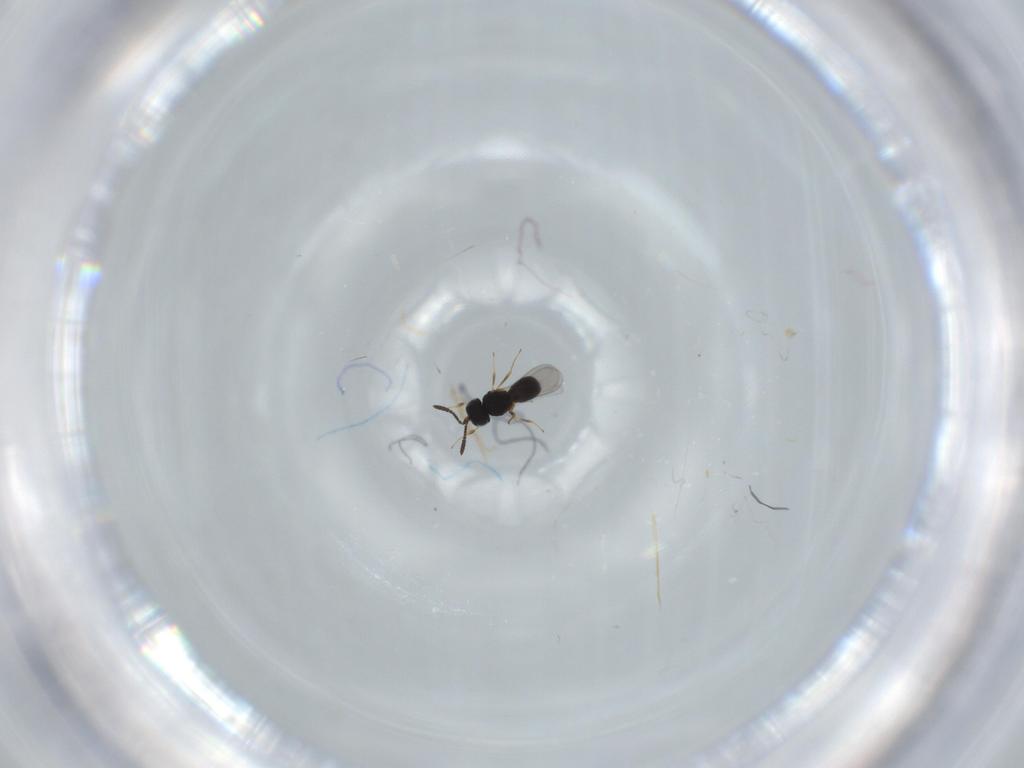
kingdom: Animalia
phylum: Arthropoda
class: Insecta
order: Hymenoptera
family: Scelionidae
